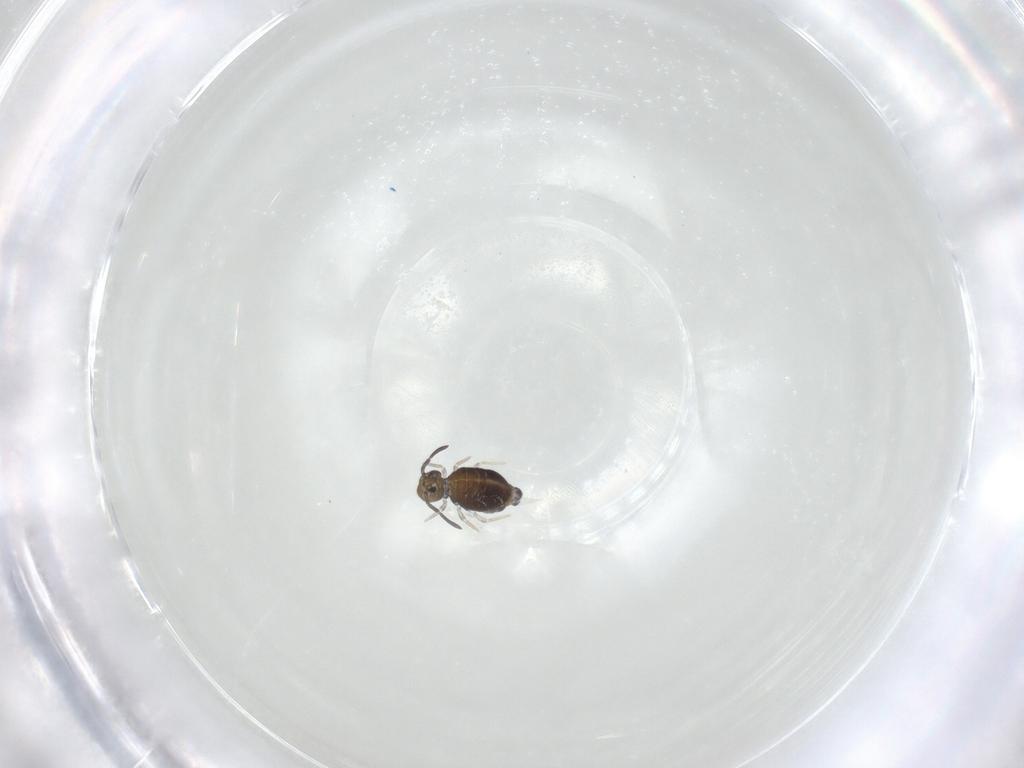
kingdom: Animalia
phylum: Arthropoda
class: Collembola
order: Symphypleona
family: Katiannidae
